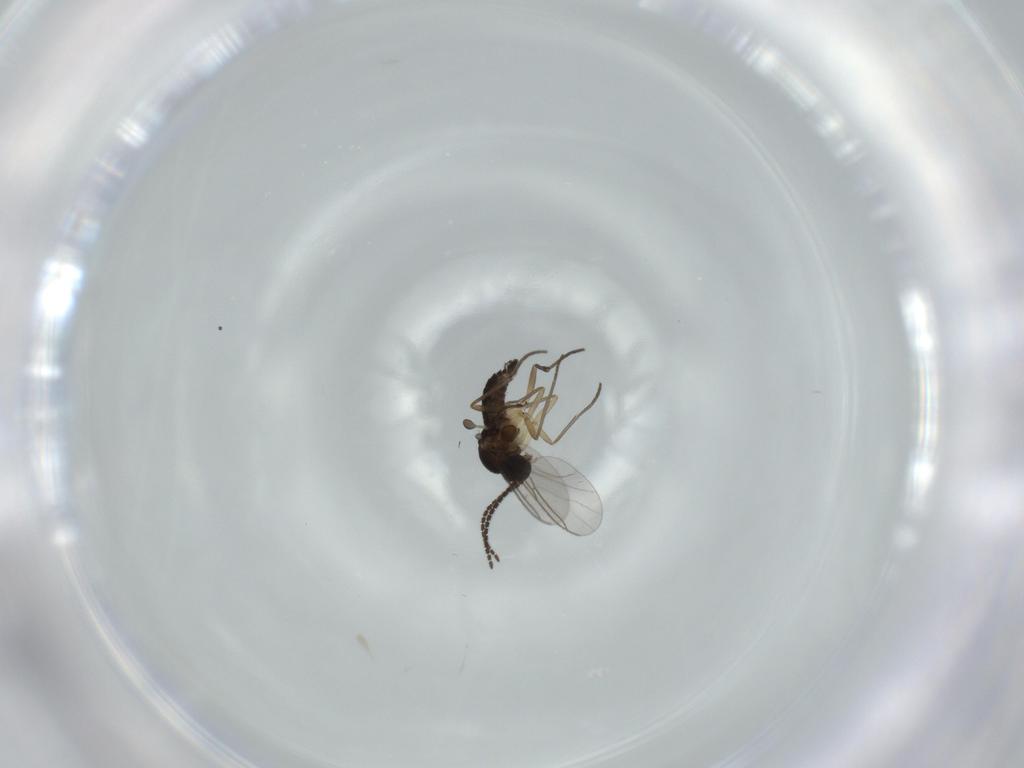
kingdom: Animalia
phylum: Arthropoda
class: Insecta
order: Diptera
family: Sciaridae
